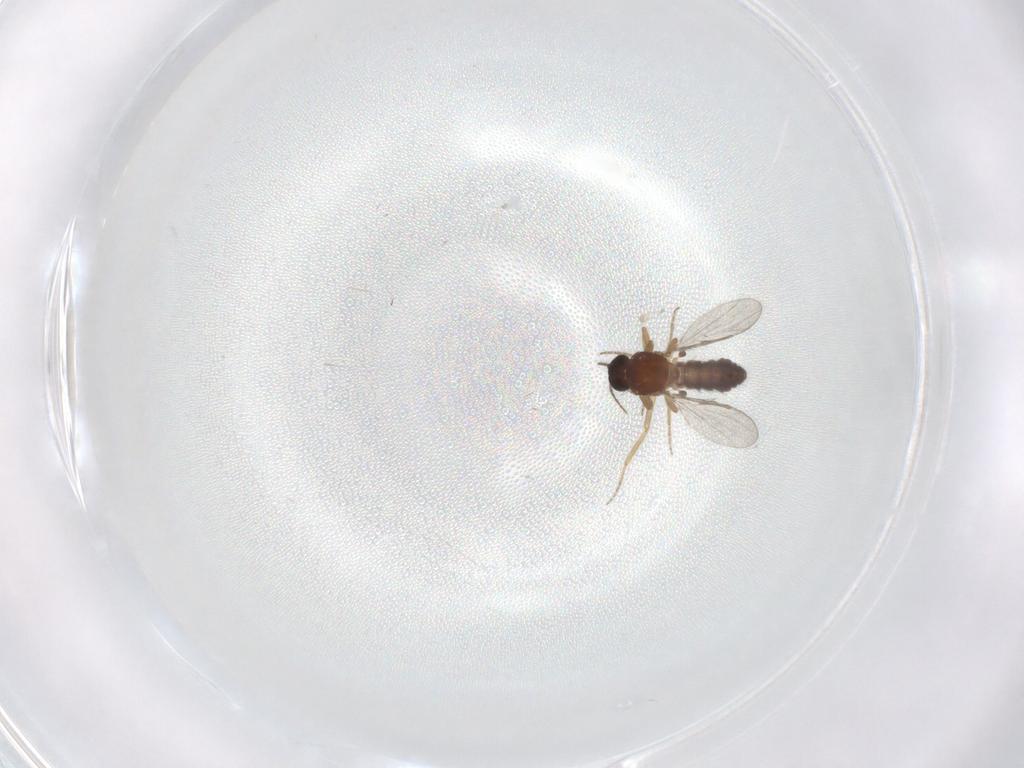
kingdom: Animalia
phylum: Arthropoda
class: Insecta
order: Diptera
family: Ceratopogonidae
